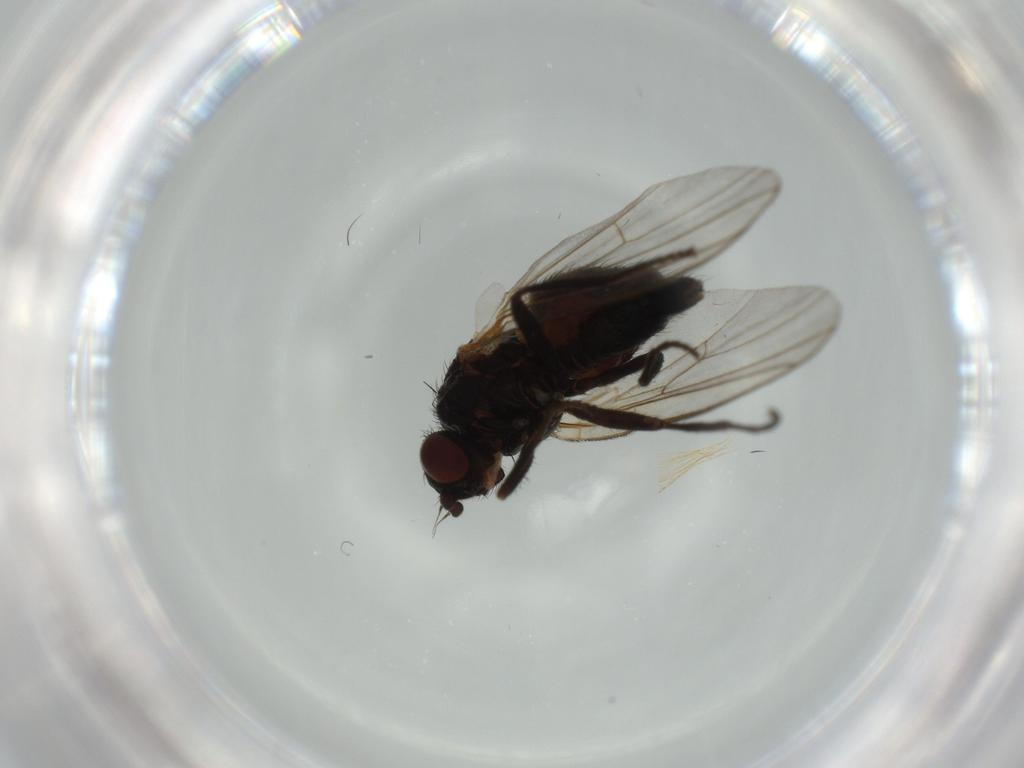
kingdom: Animalia
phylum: Arthropoda
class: Insecta
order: Diptera
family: Agromyzidae
